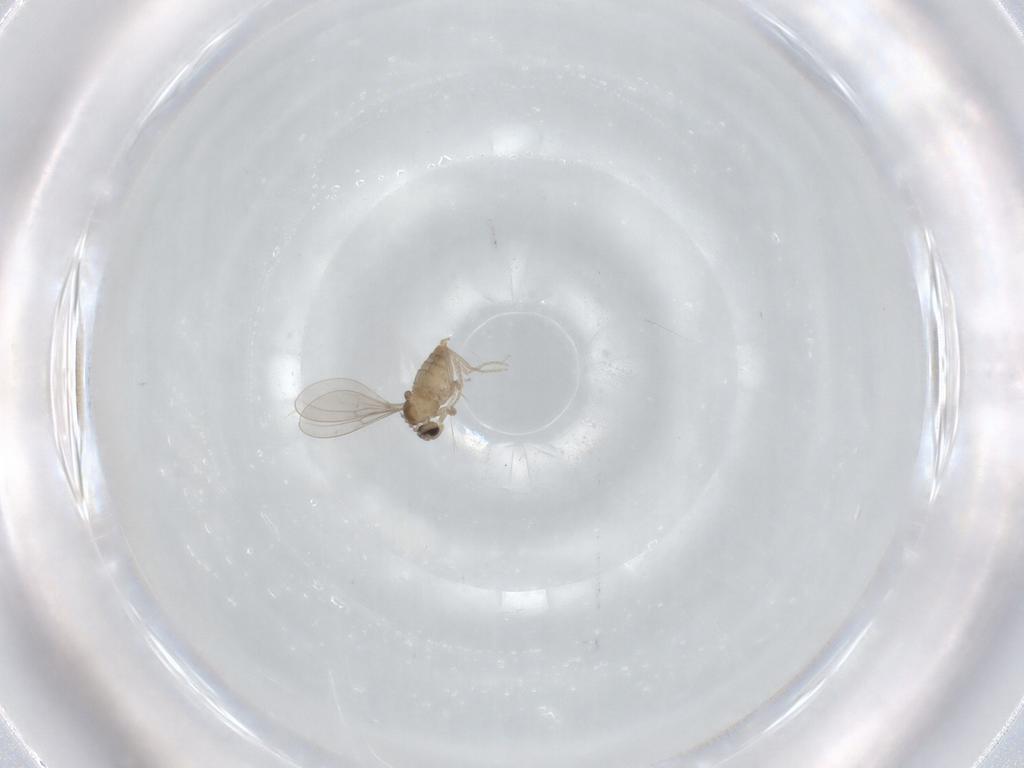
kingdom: Animalia
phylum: Arthropoda
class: Insecta
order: Diptera
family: Cecidomyiidae
